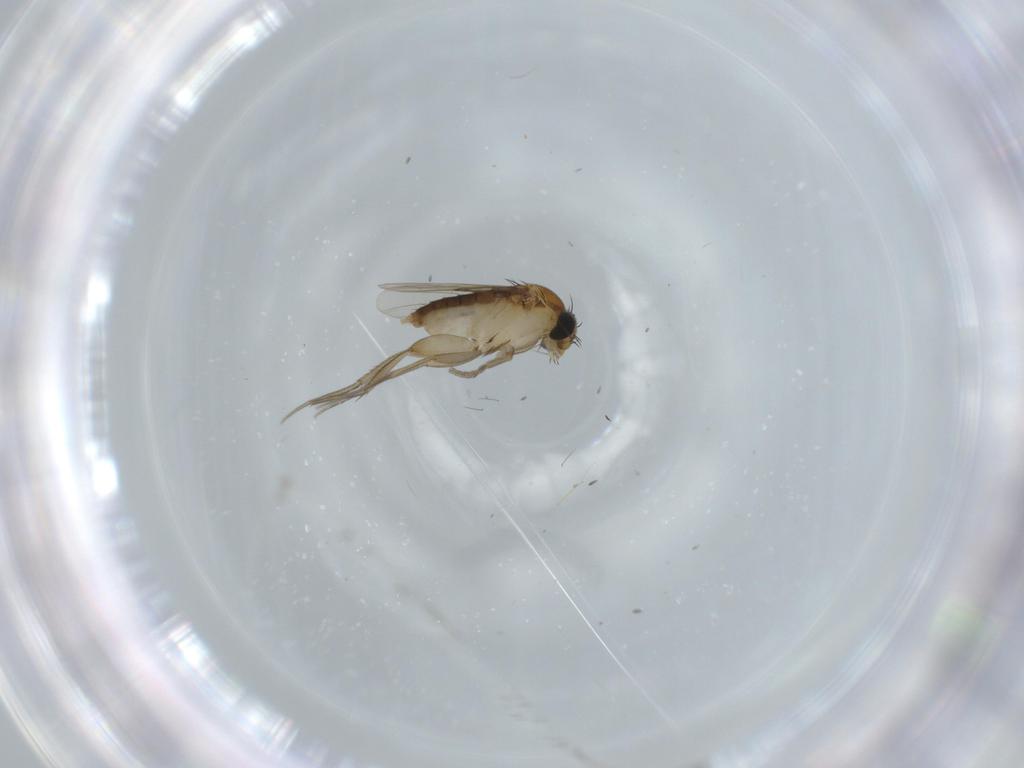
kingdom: Animalia
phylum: Arthropoda
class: Insecta
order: Diptera
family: Phoridae
